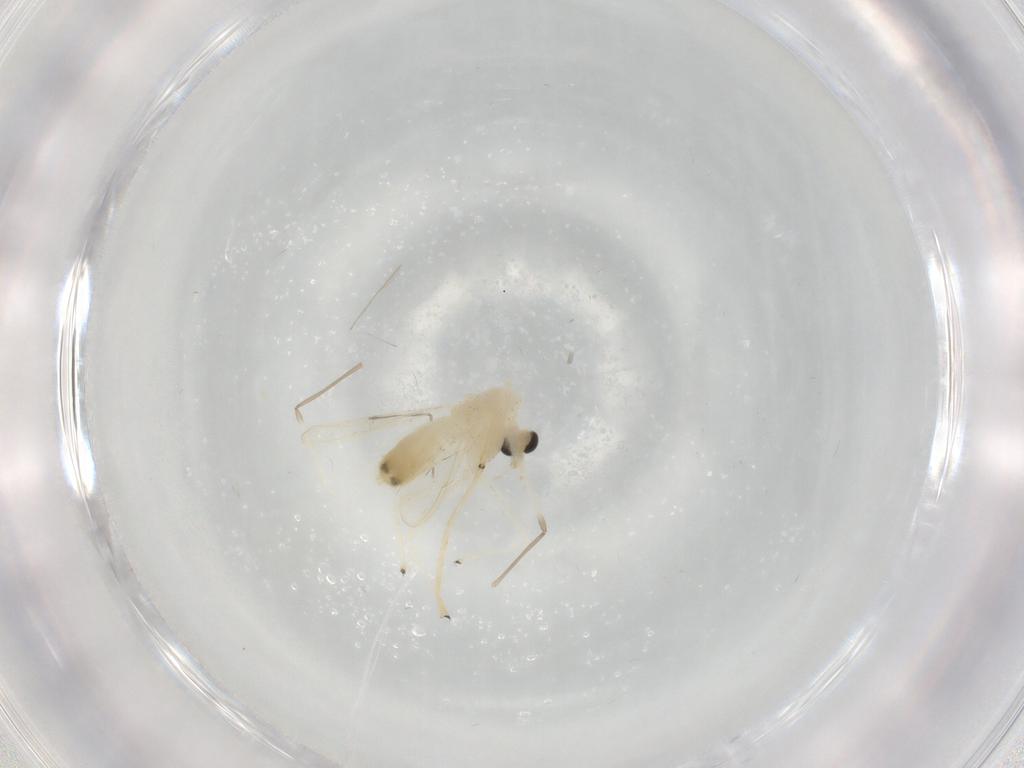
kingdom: Animalia
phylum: Arthropoda
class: Insecta
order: Diptera
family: Chironomidae
